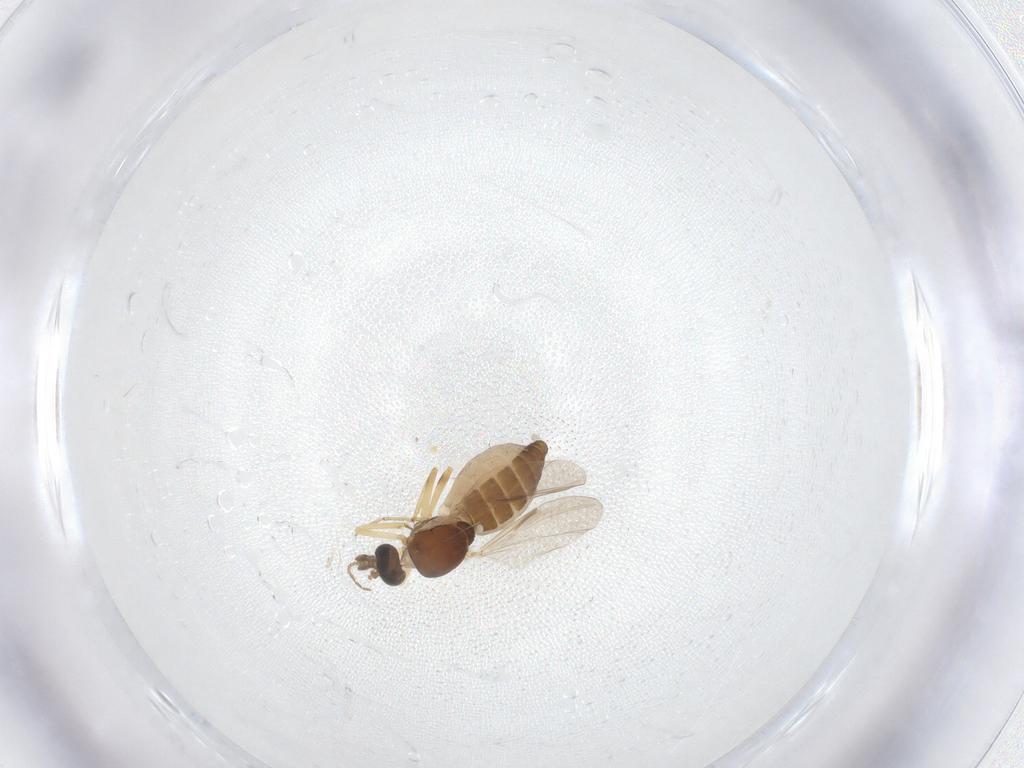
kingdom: Animalia
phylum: Arthropoda
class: Insecta
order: Diptera
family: Ceratopogonidae
